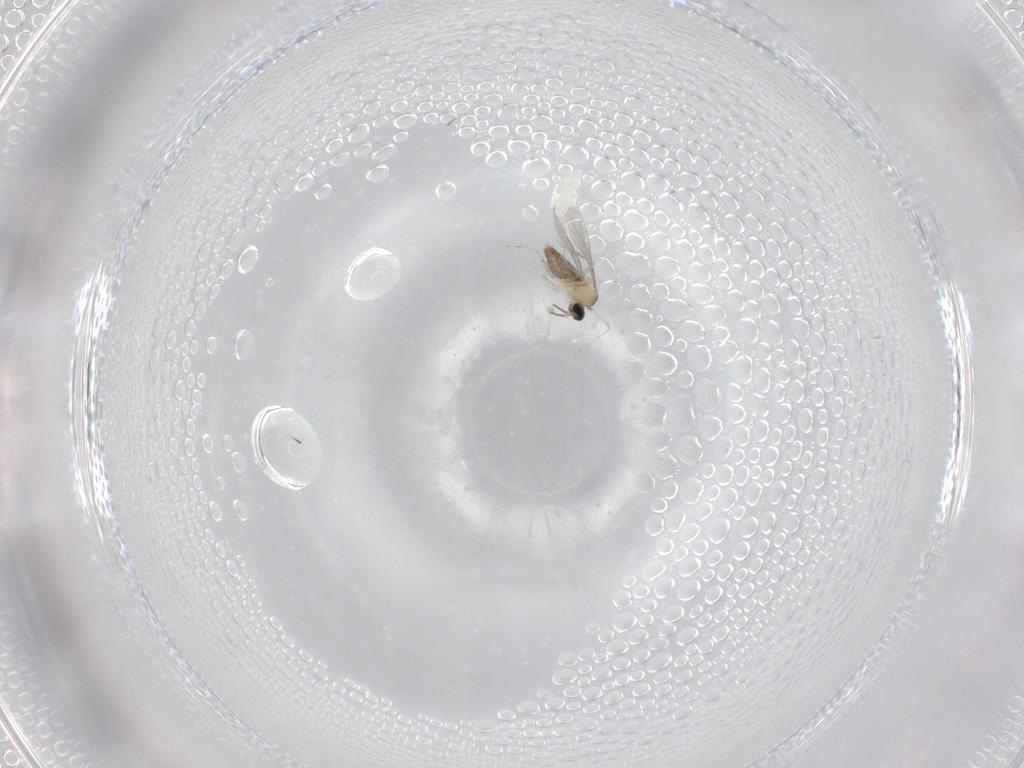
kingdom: Animalia
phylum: Arthropoda
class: Insecta
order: Diptera
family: Cecidomyiidae
